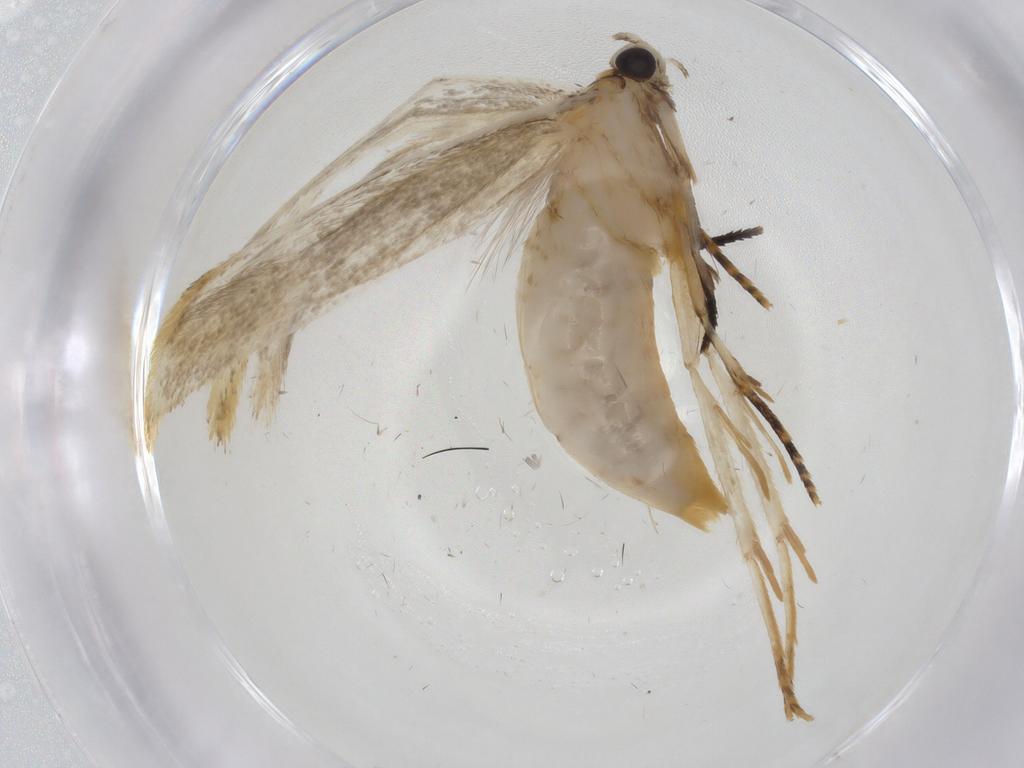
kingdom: Animalia
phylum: Arthropoda
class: Insecta
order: Lepidoptera
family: Tineidae
